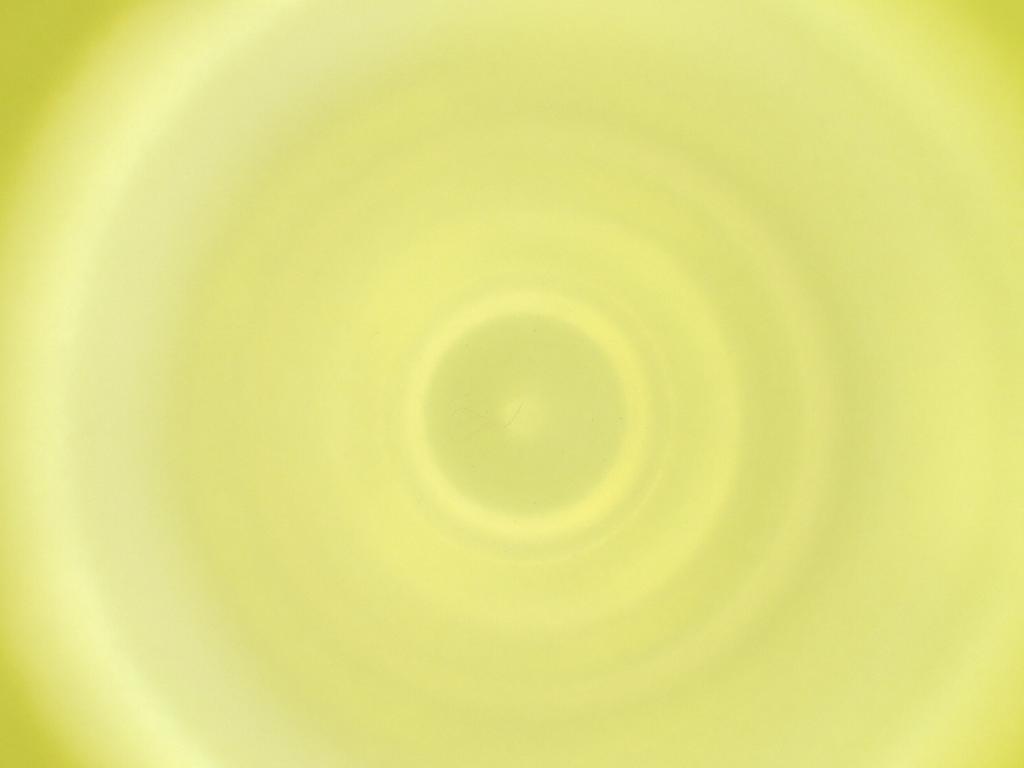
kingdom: Animalia
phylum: Arthropoda
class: Insecta
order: Diptera
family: Cecidomyiidae
